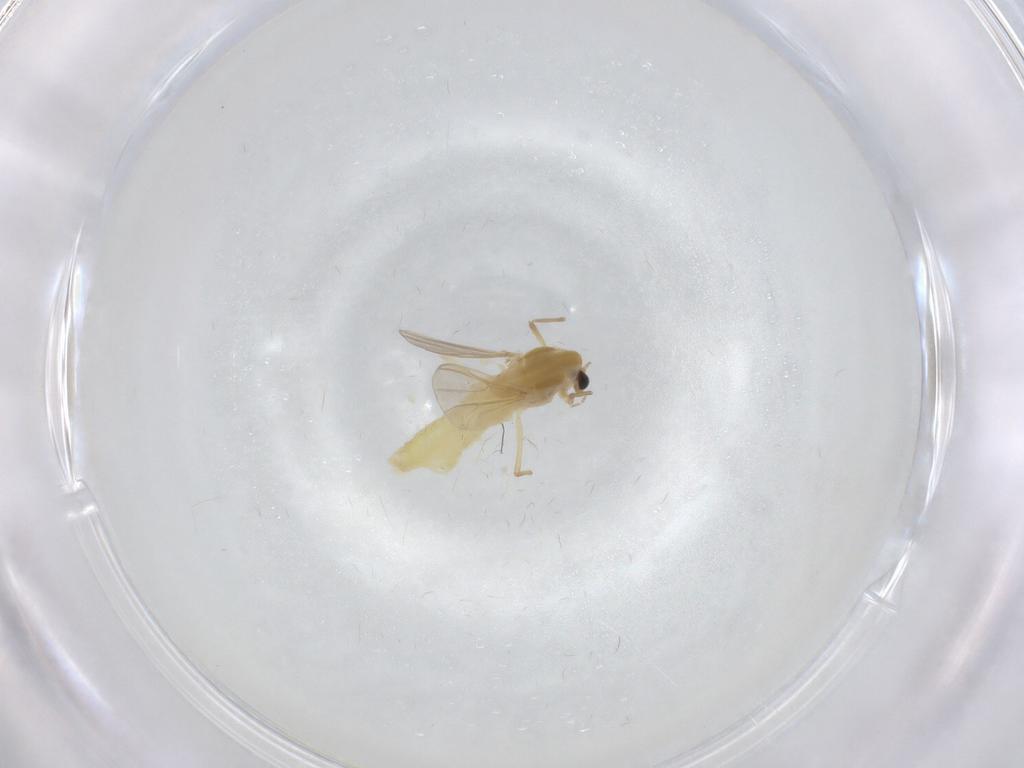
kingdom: Animalia
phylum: Arthropoda
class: Insecta
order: Diptera
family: Chironomidae
